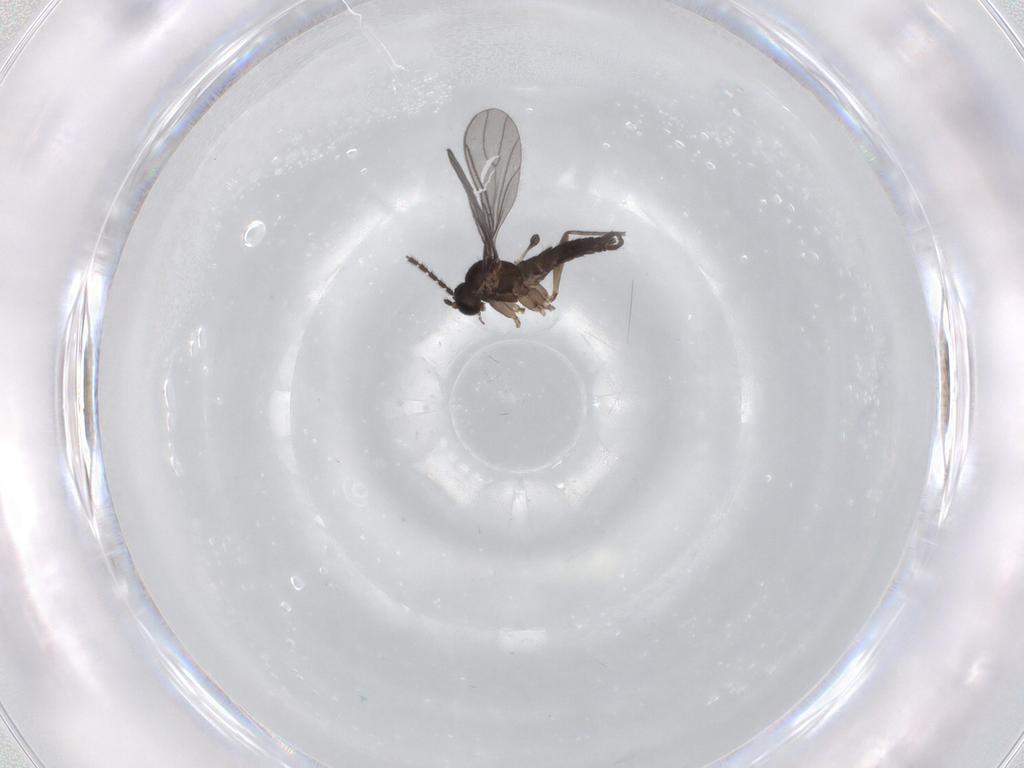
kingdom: Animalia
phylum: Arthropoda
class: Insecta
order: Diptera
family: Sciaridae
